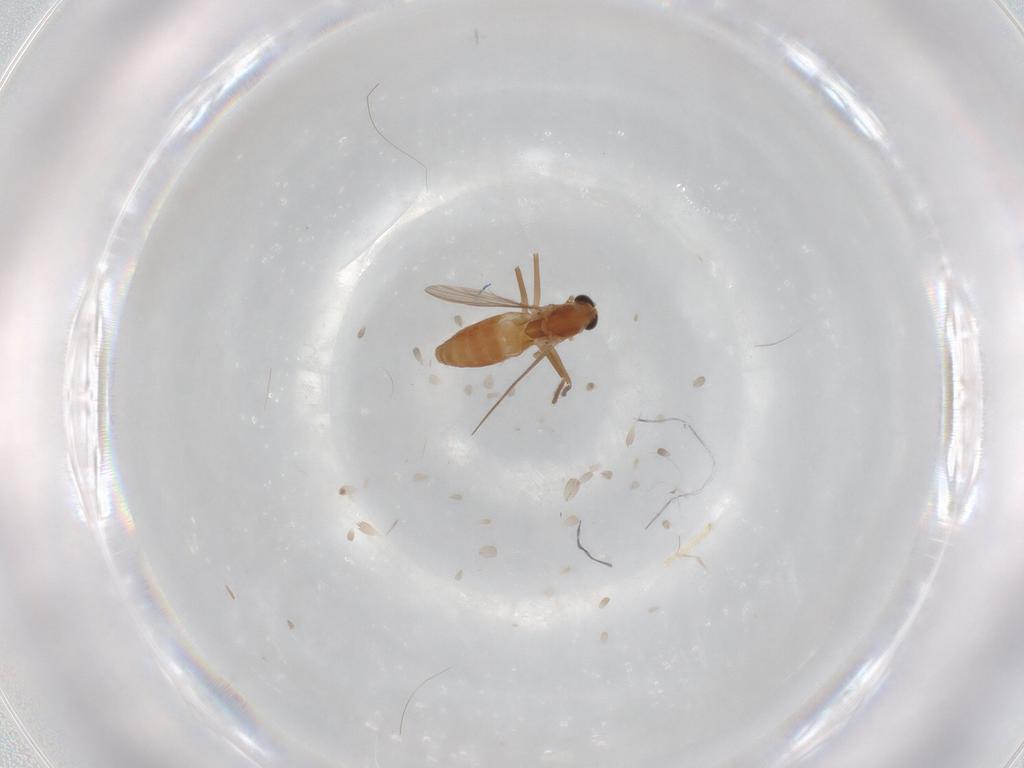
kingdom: Animalia
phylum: Arthropoda
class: Insecta
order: Diptera
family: Chironomidae
